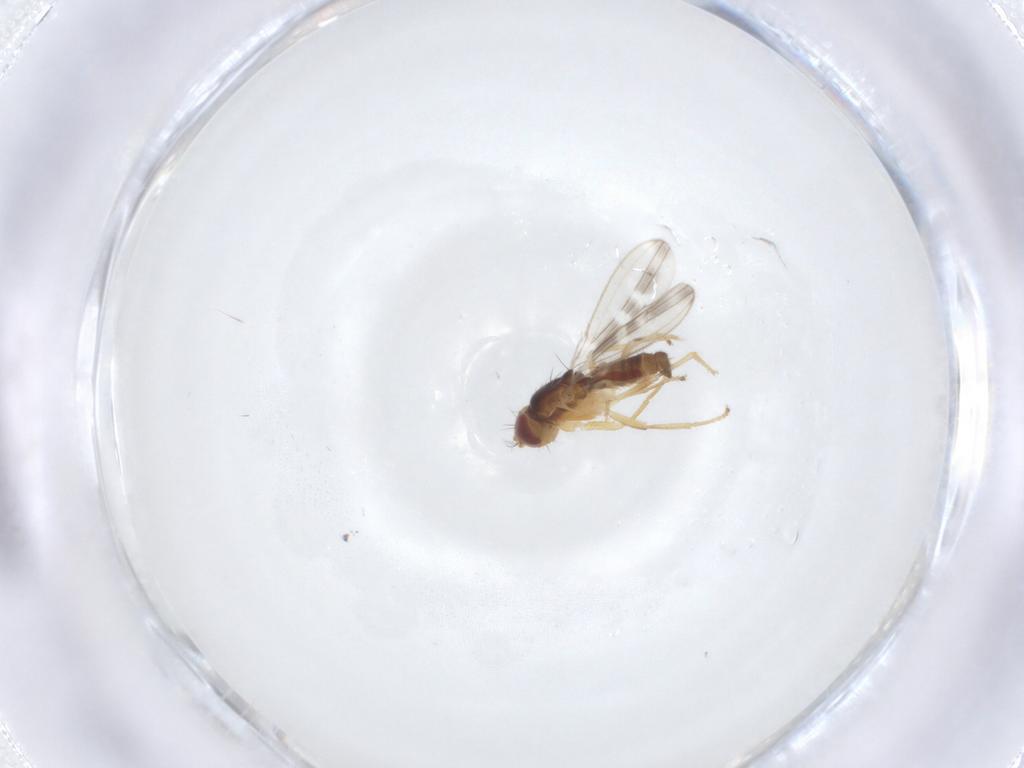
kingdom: Animalia
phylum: Arthropoda
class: Insecta
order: Diptera
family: Periscelididae
